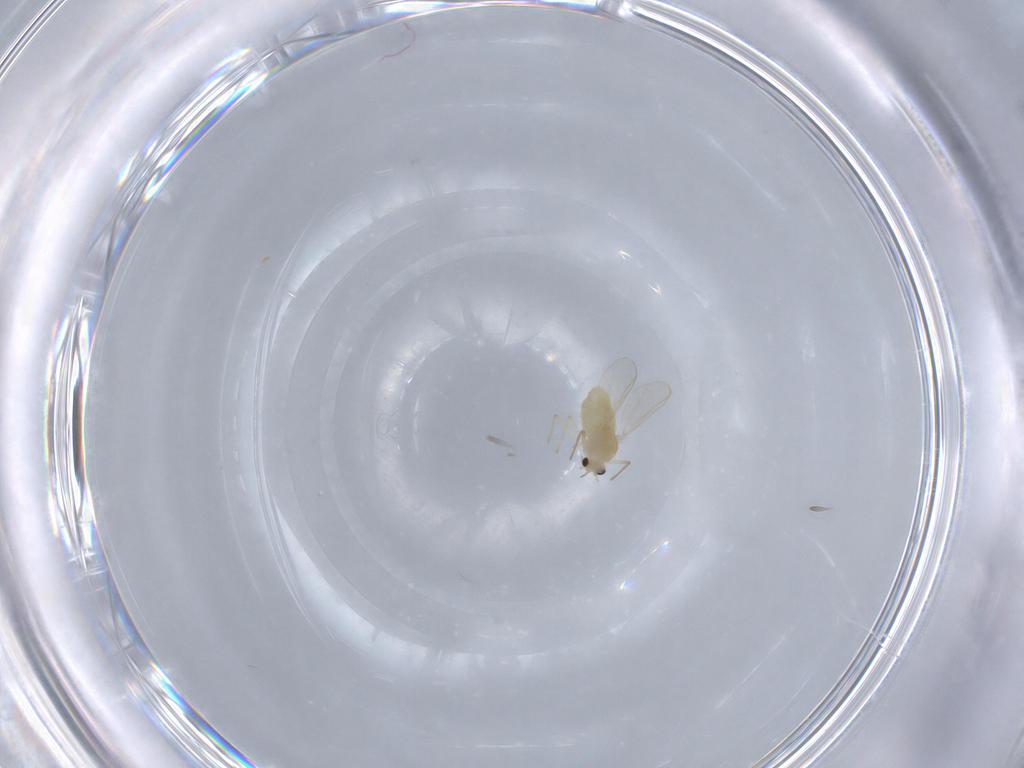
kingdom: Animalia
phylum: Arthropoda
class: Insecta
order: Diptera
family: Chironomidae
